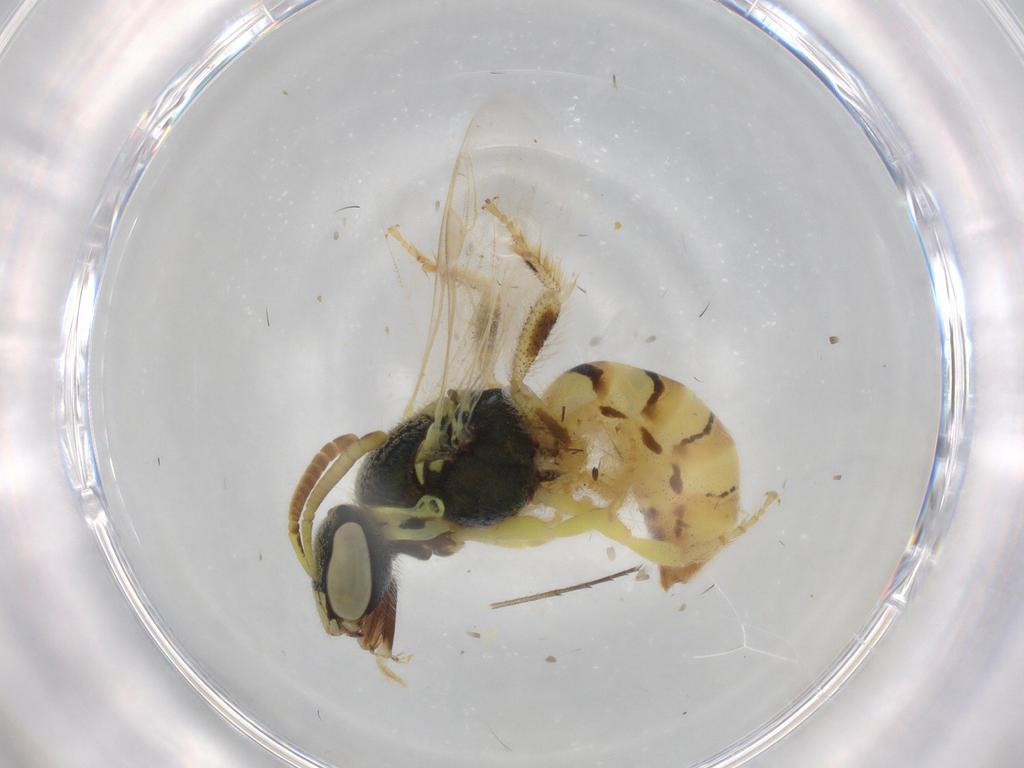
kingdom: Animalia
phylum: Arthropoda
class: Insecta
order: Hymenoptera
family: Halictidae
